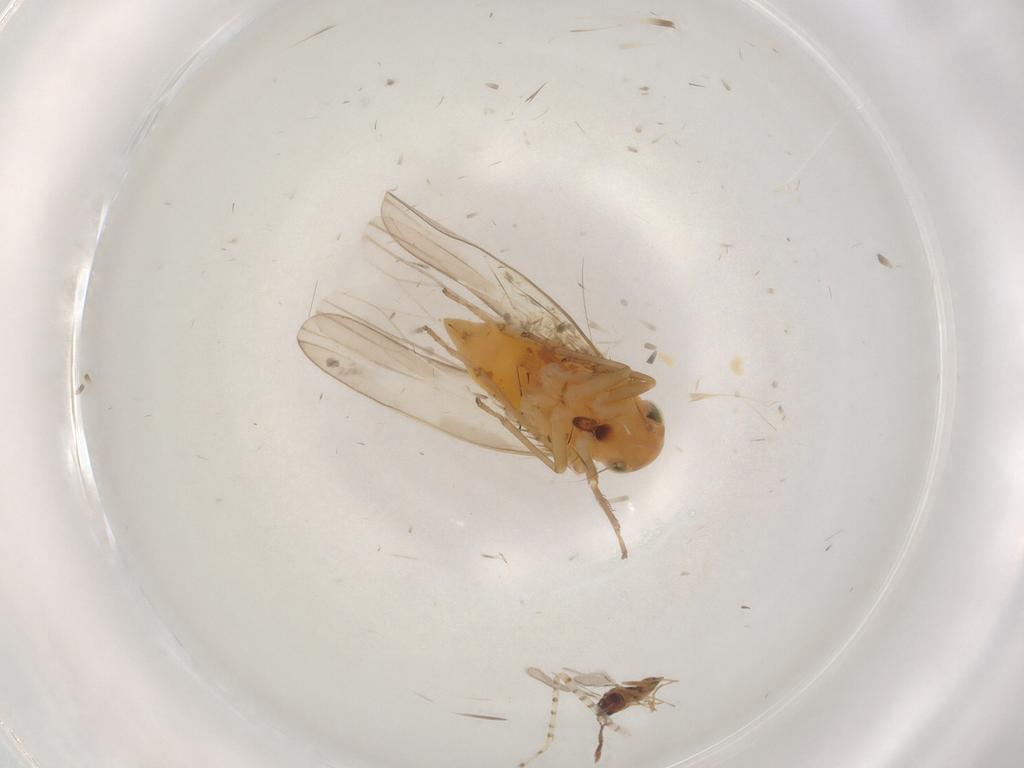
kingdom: Animalia
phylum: Arthropoda
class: Insecta
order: Hemiptera
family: Cicadellidae
